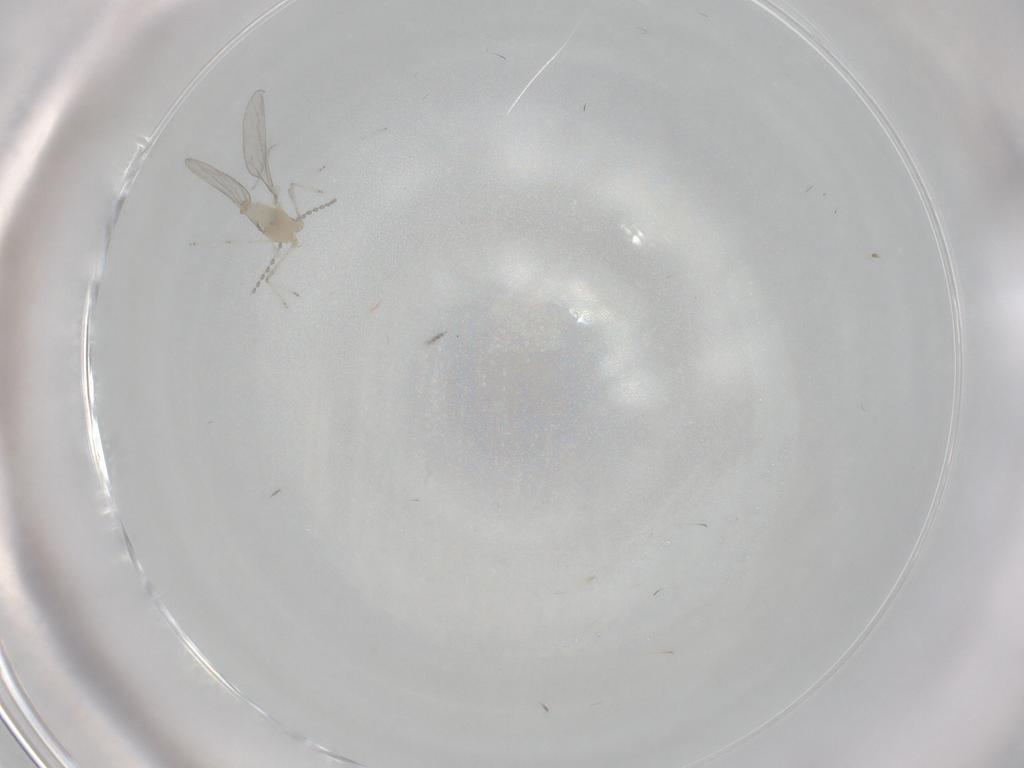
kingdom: Animalia
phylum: Arthropoda
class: Insecta
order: Diptera
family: Cecidomyiidae
